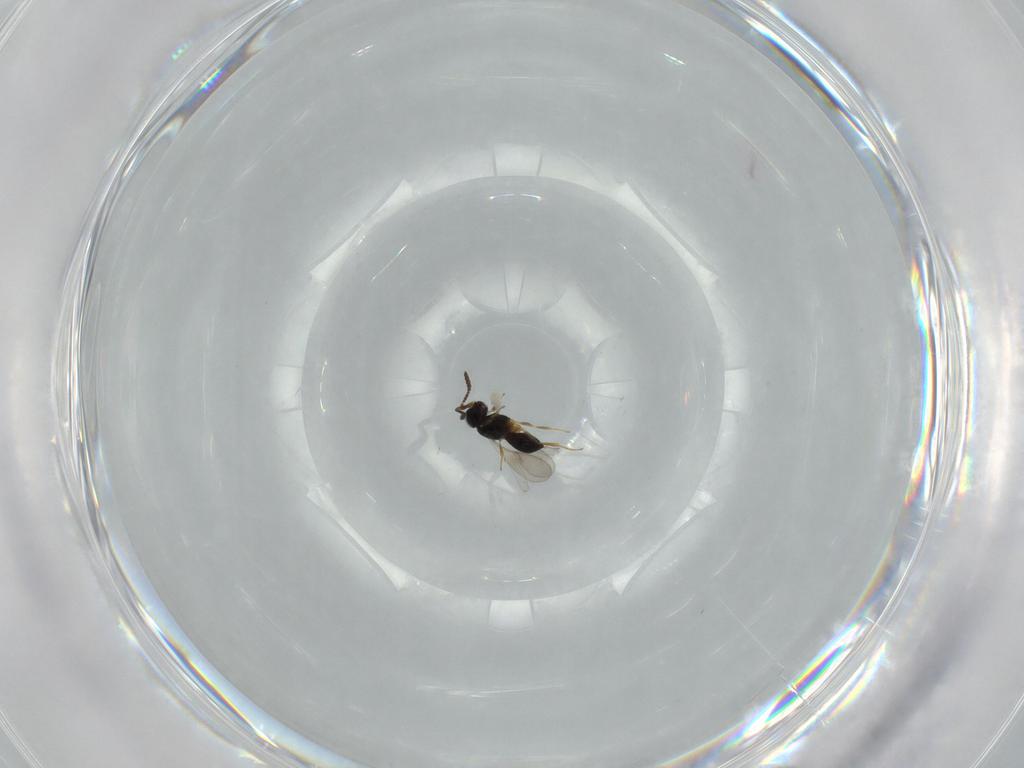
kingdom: Animalia
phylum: Arthropoda
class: Insecta
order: Hymenoptera
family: Scelionidae
